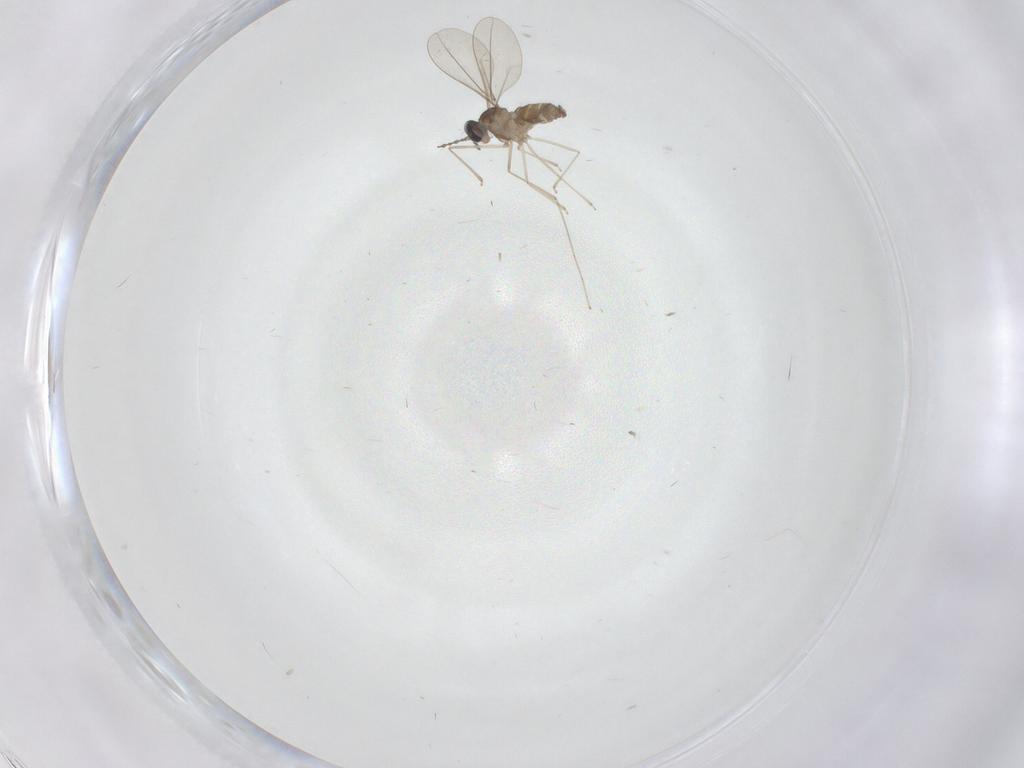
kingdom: Animalia
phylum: Arthropoda
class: Insecta
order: Diptera
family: Cecidomyiidae
